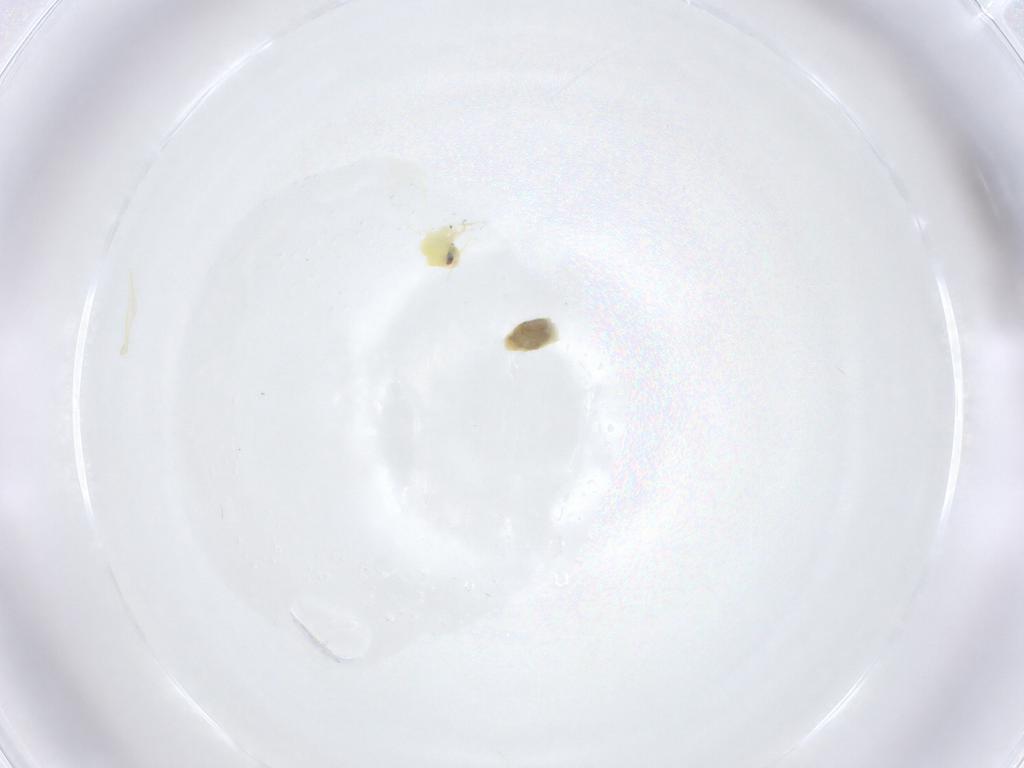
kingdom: Animalia
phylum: Arthropoda
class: Insecta
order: Hemiptera
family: Aleyrodidae
